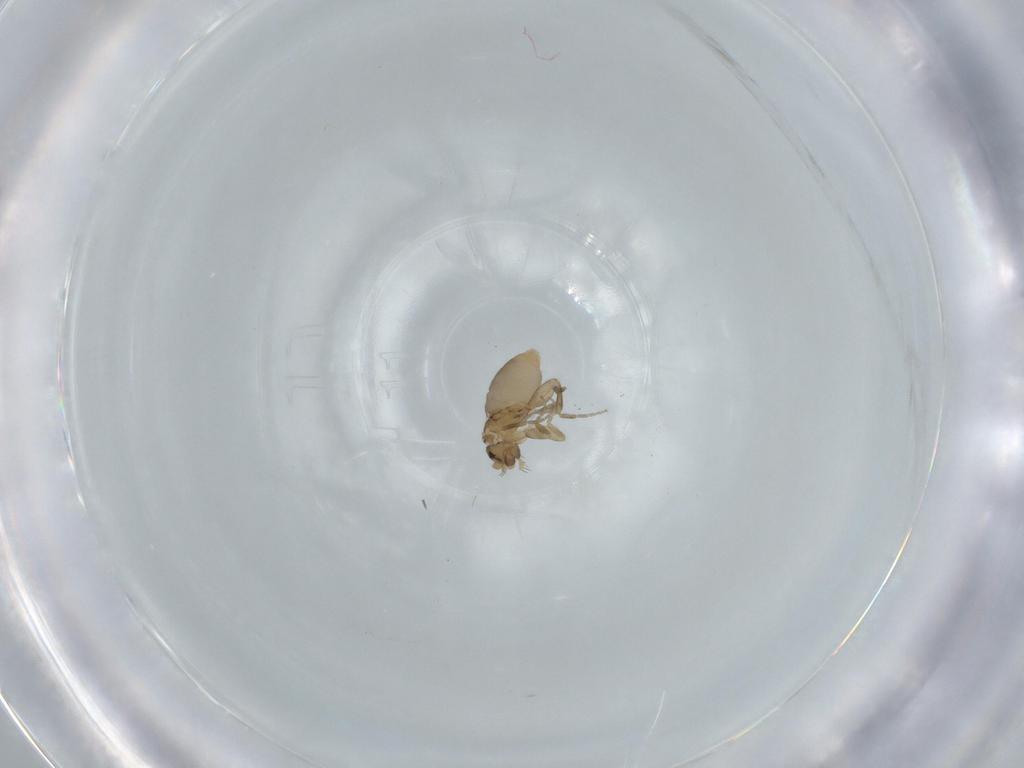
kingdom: Animalia
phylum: Arthropoda
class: Insecta
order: Diptera
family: Phoridae
